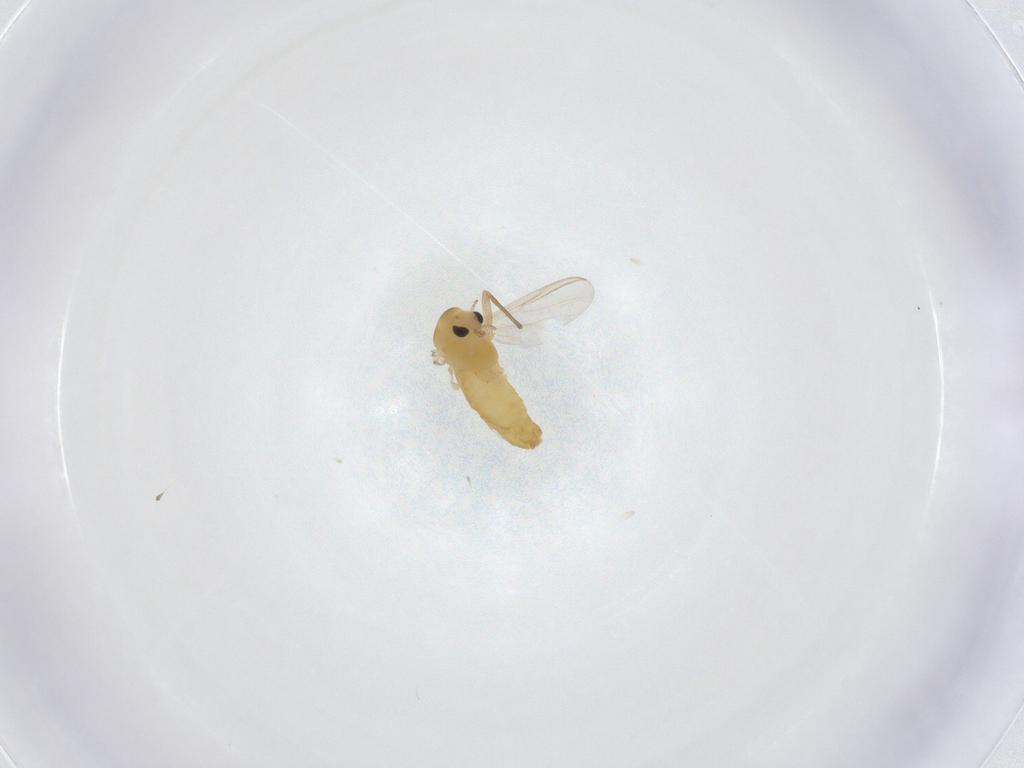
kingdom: Animalia
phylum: Arthropoda
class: Insecta
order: Diptera
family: Chironomidae
